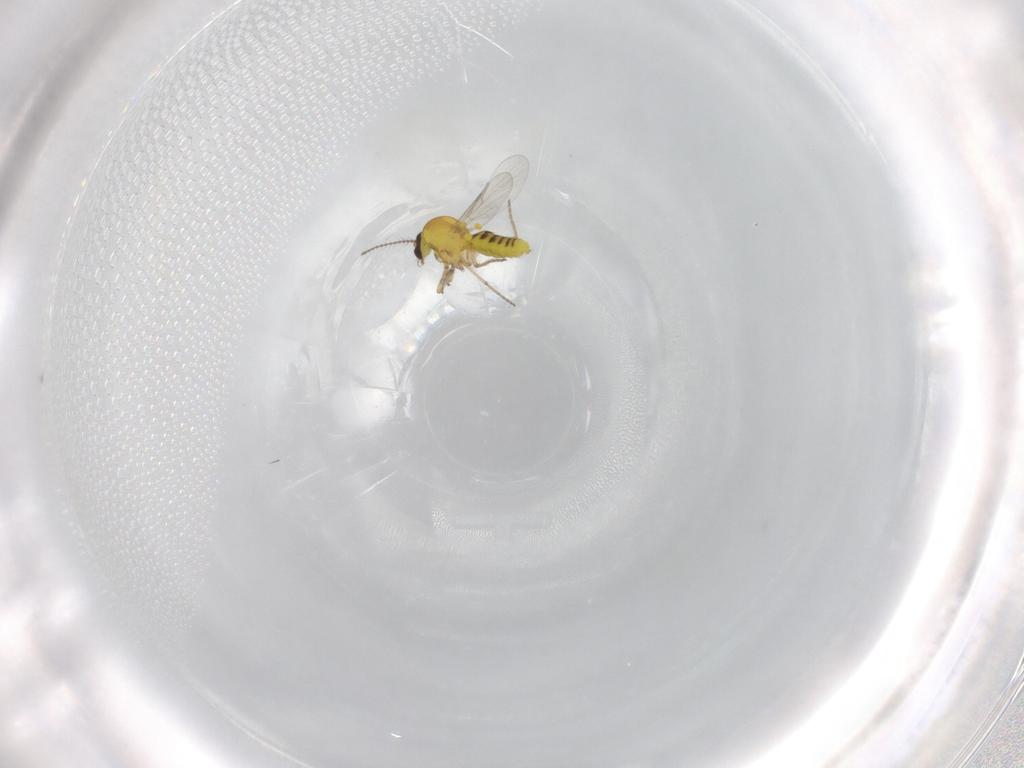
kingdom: Animalia
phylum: Arthropoda
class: Insecta
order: Diptera
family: Ceratopogonidae
